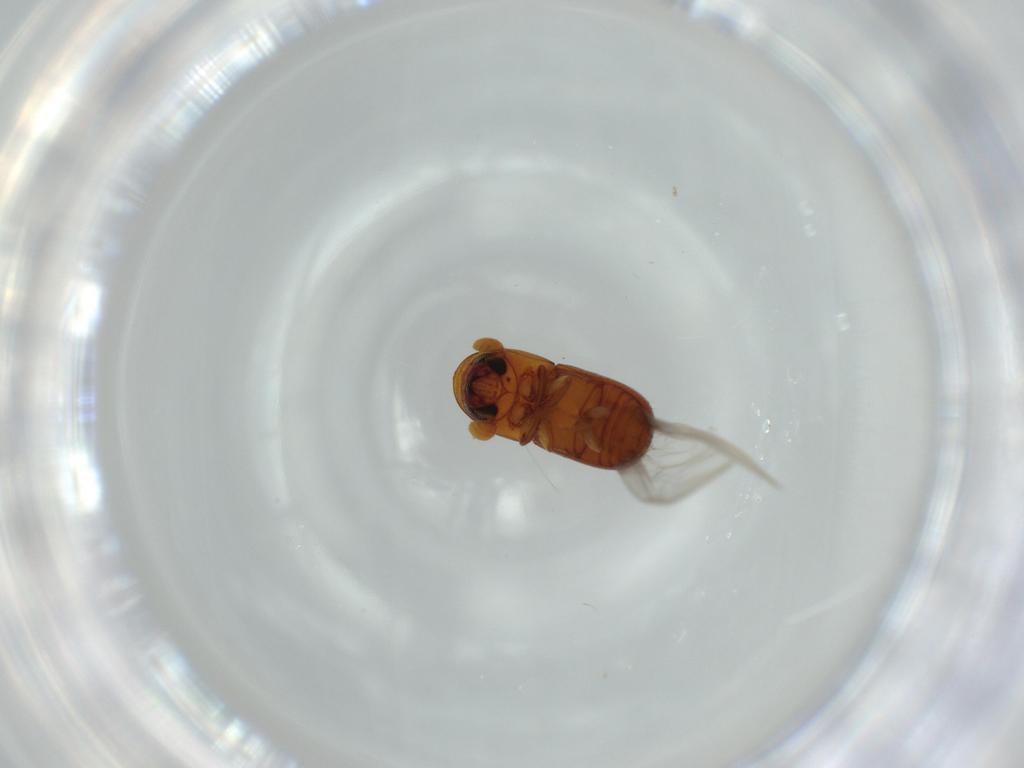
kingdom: Animalia
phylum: Arthropoda
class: Insecta
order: Coleoptera
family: Curculionidae
